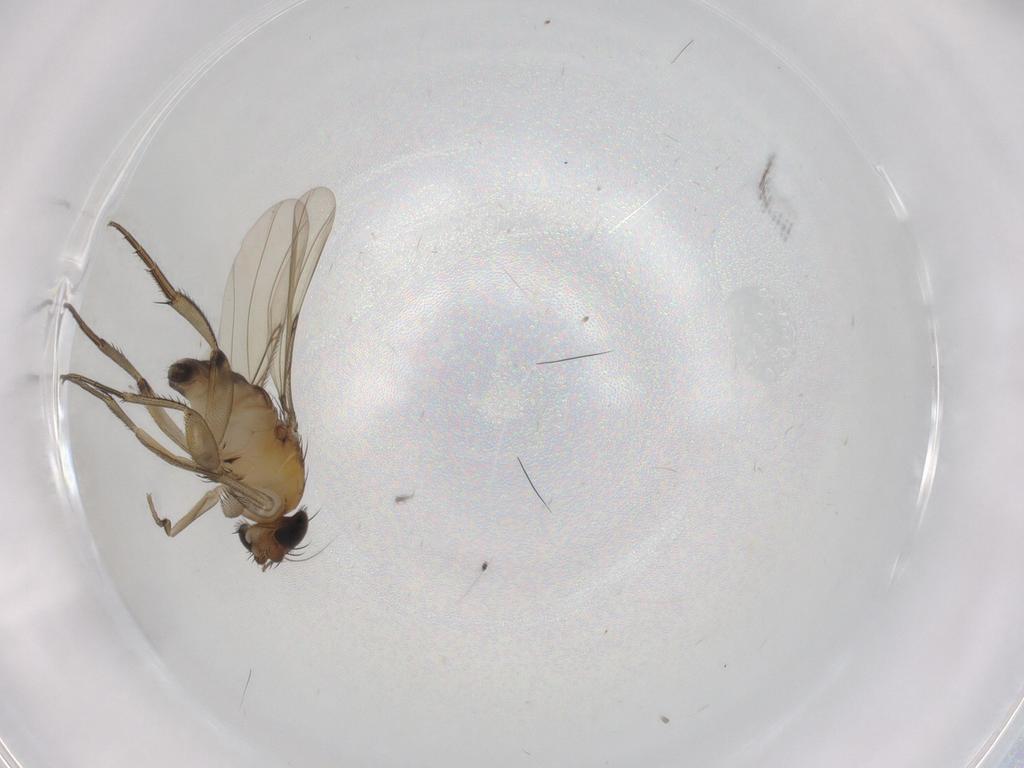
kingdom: Animalia
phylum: Arthropoda
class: Insecta
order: Diptera
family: Phoridae
